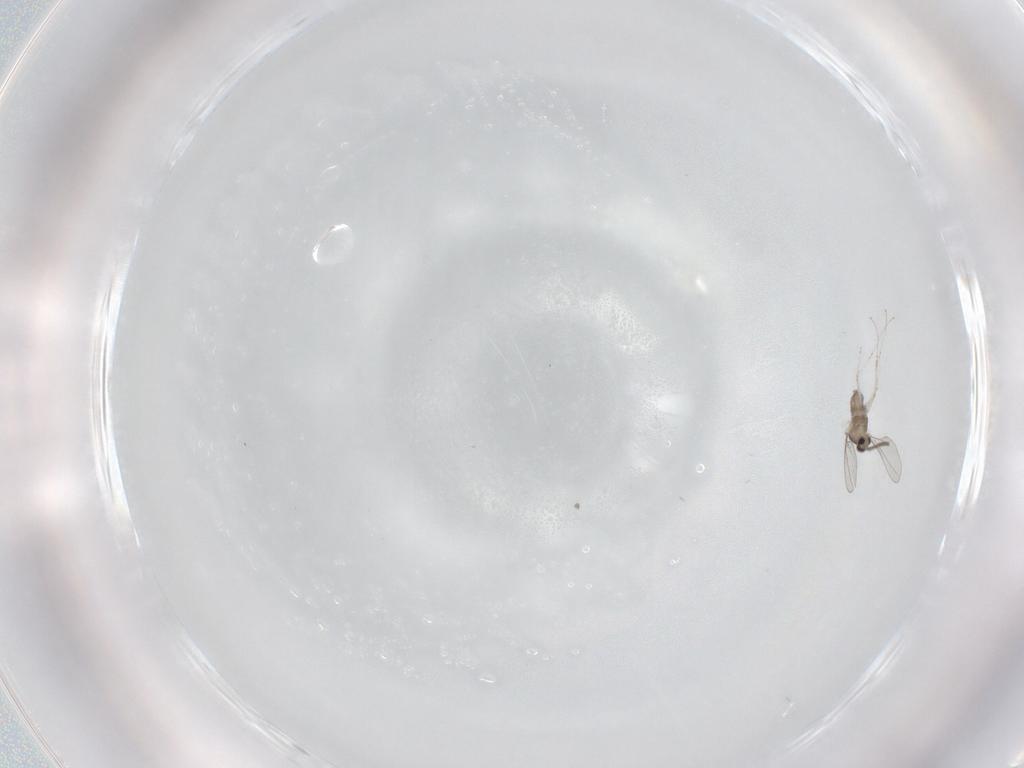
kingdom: Animalia
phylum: Arthropoda
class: Insecta
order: Diptera
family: Cecidomyiidae
